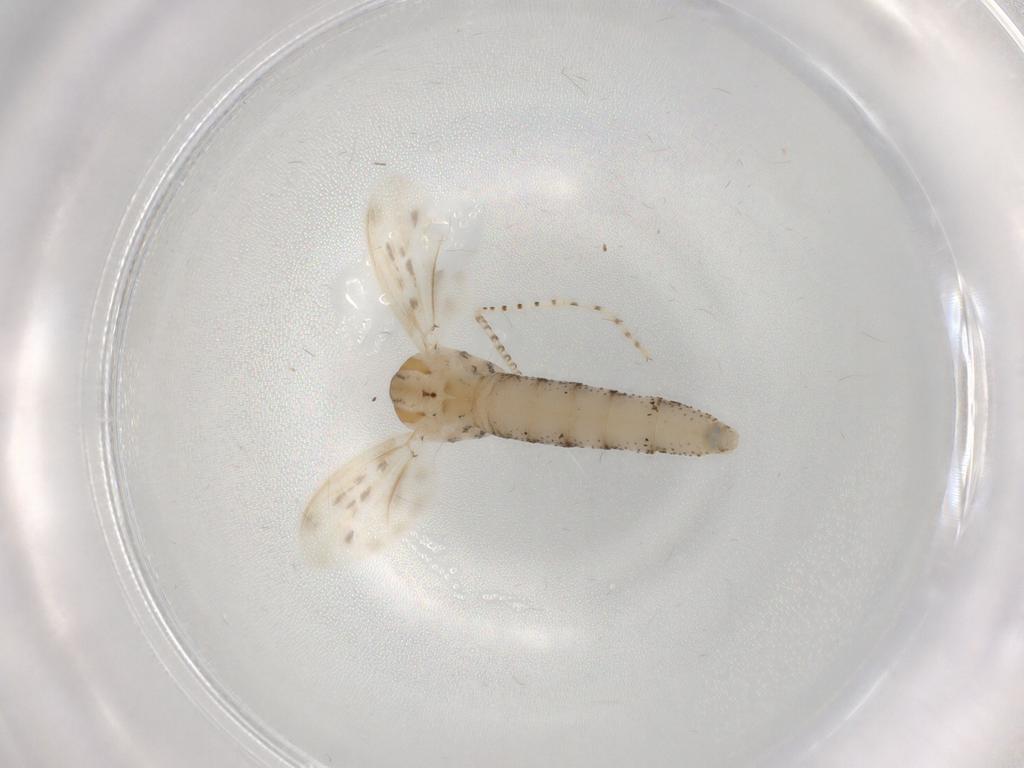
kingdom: Animalia
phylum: Arthropoda
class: Insecta
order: Diptera
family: Chaoboridae
